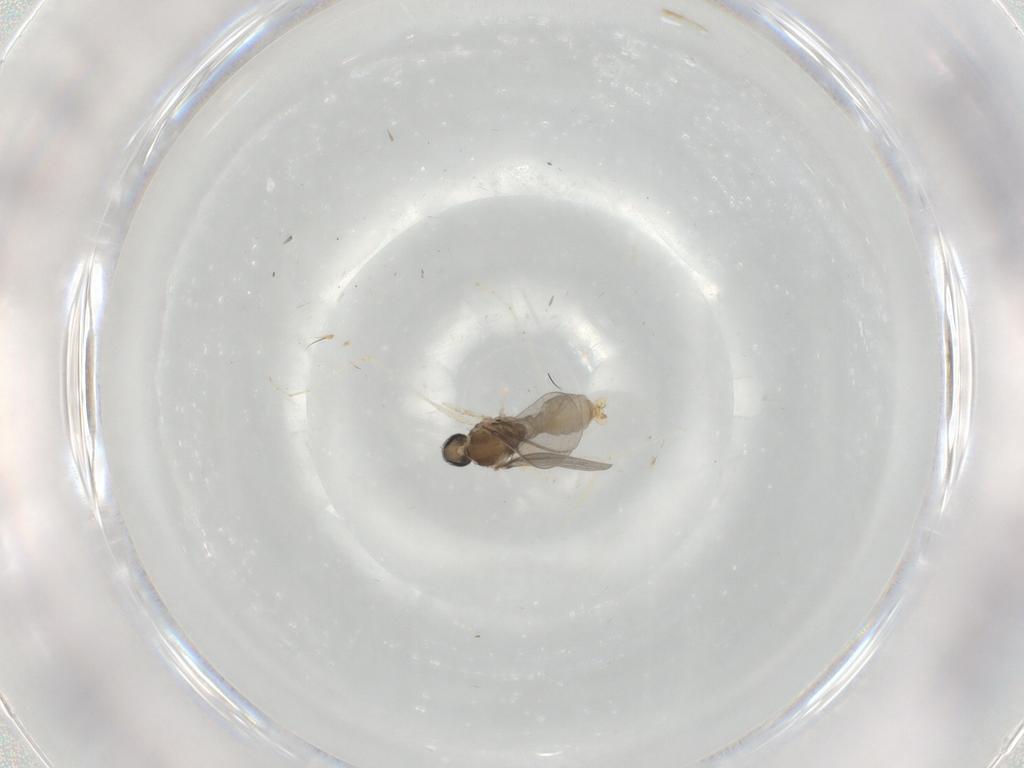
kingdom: Animalia
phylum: Arthropoda
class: Insecta
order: Diptera
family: Cecidomyiidae
